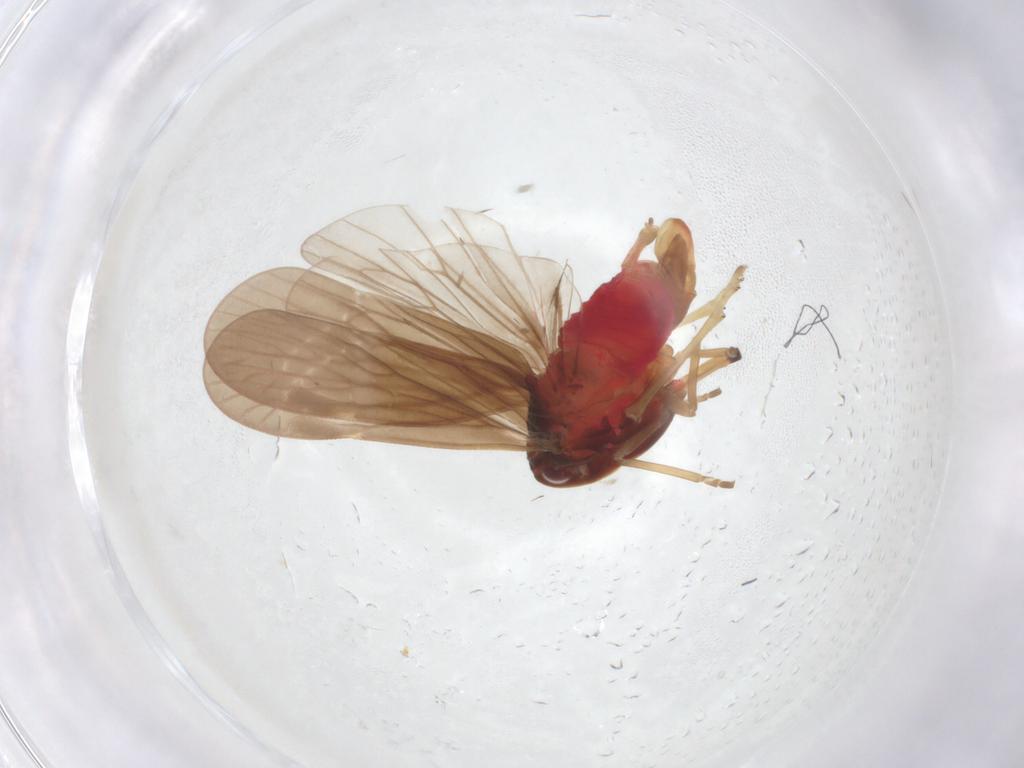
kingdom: Animalia
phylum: Arthropoda
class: Insecta
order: Hemiptera
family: Derbidae
